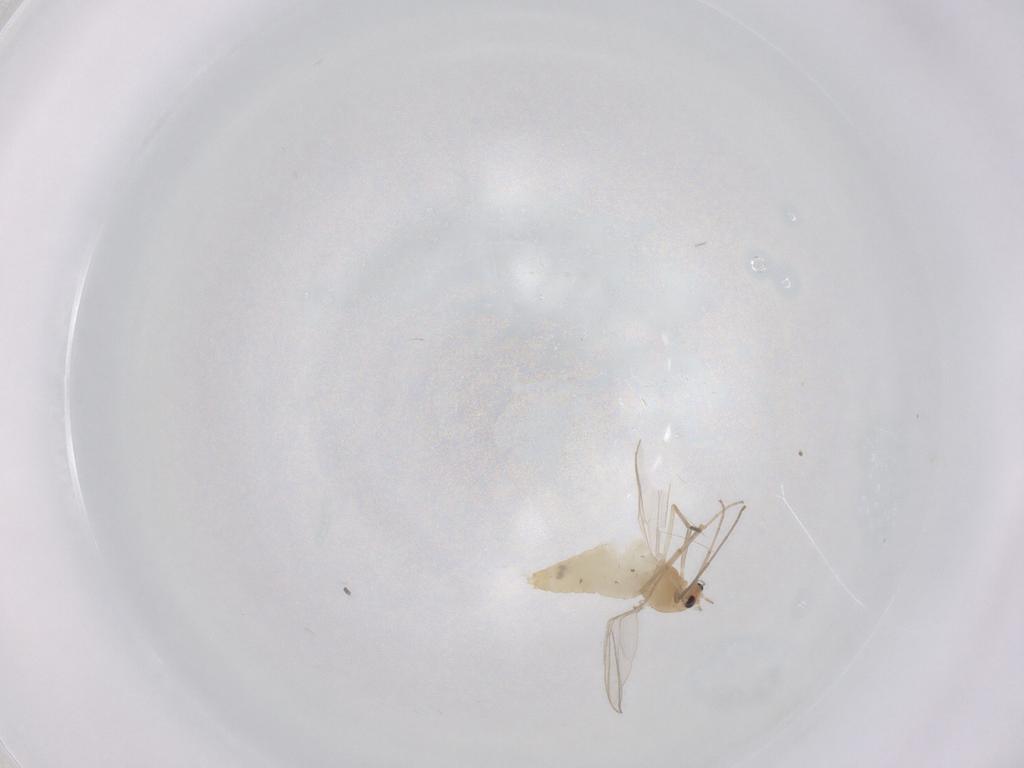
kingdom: Animalia
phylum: Arthropoda
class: Insecta
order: Diptera
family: Chironomidae
